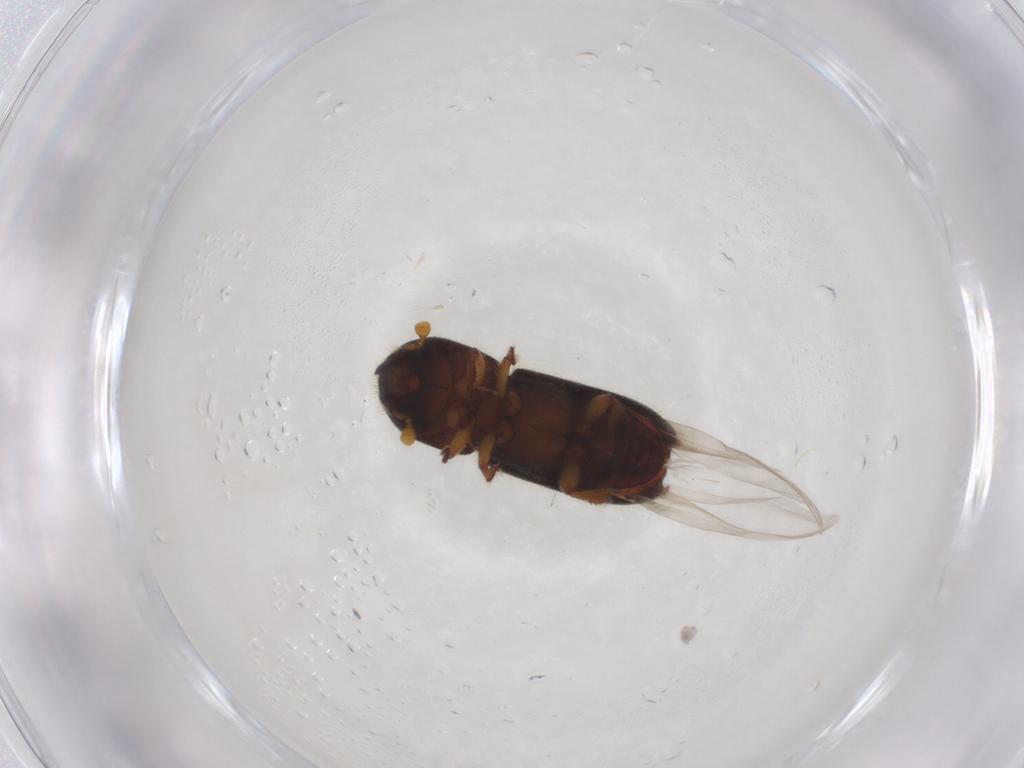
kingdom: Animalia
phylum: Arthropoda
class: Insecta
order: Coleoptera
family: Curculionidae
